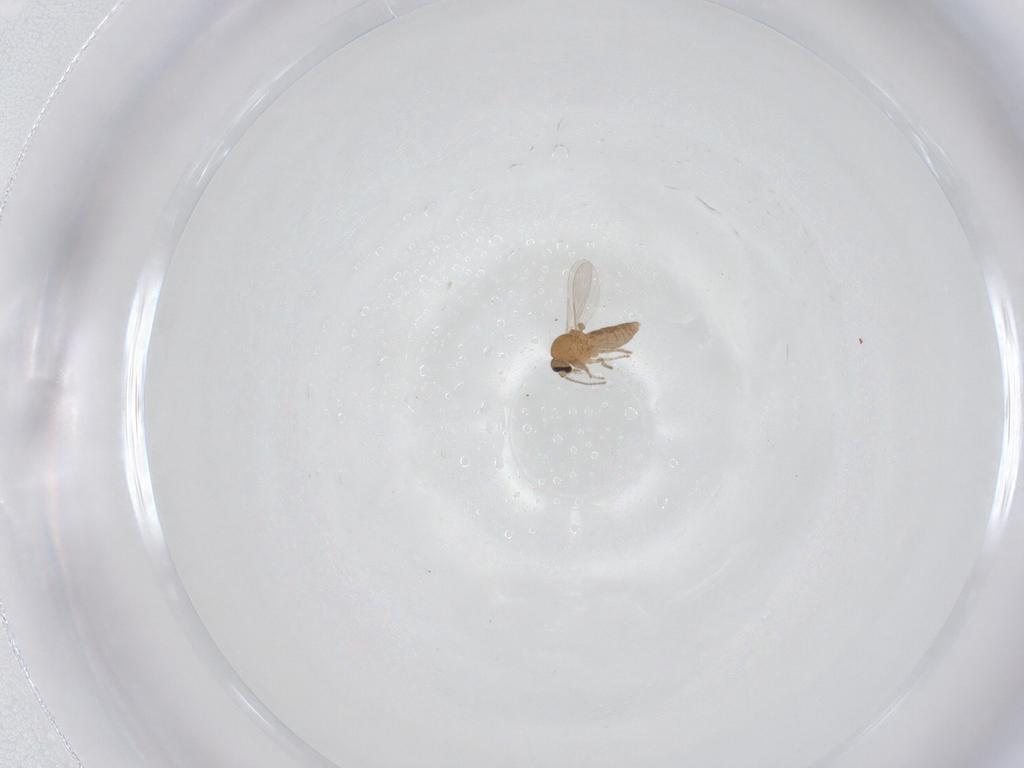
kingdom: Animalia
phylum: Arthropoda
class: Insecta
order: Diptera
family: Ceratopogonidae
